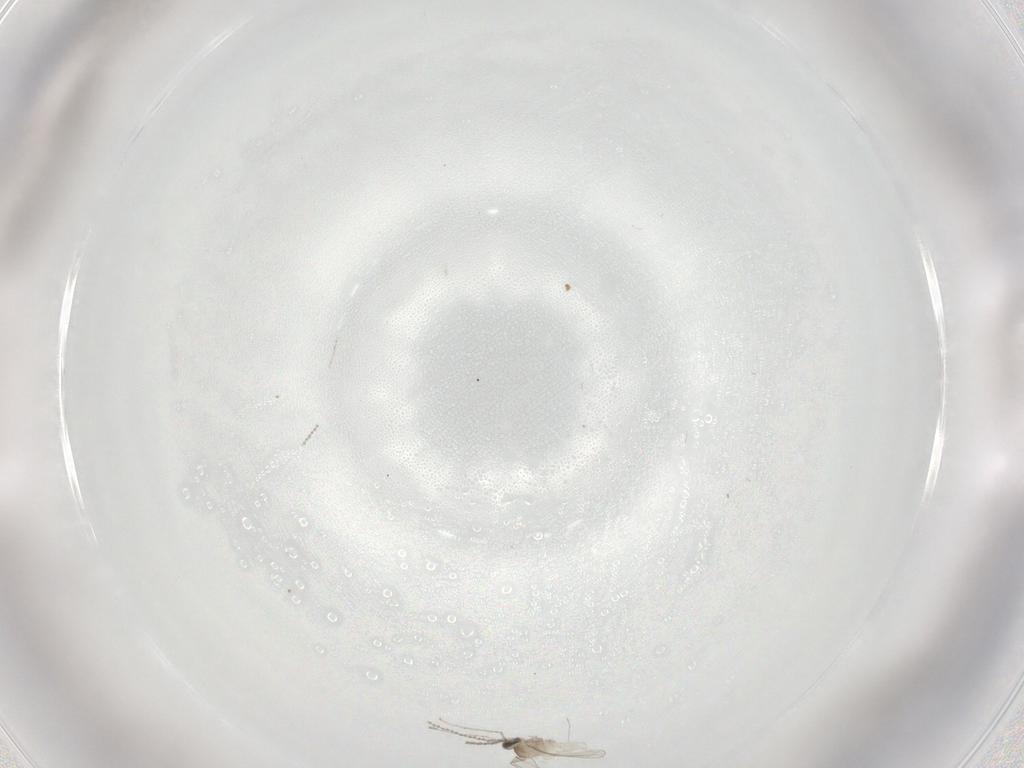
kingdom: Animalia
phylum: Arthropoda
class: Insecta
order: Diptera
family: Cecidomyiidae
